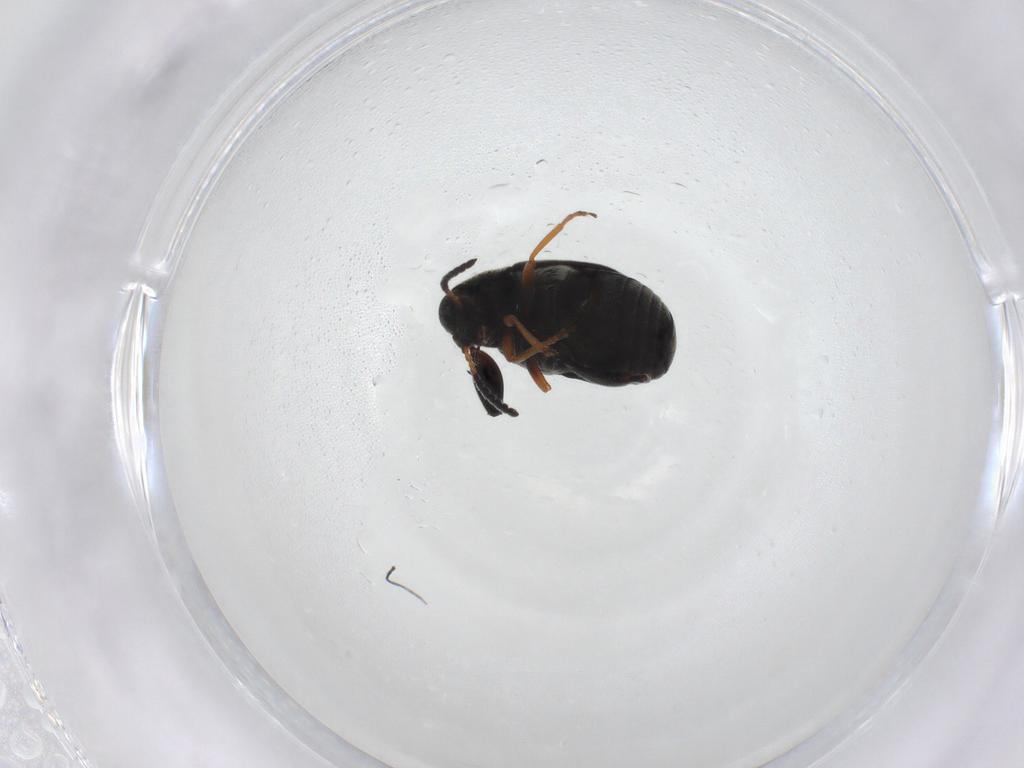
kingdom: Animalia
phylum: Arthropoda
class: Insecta
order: Coleoptera
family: Chrysomelidae
